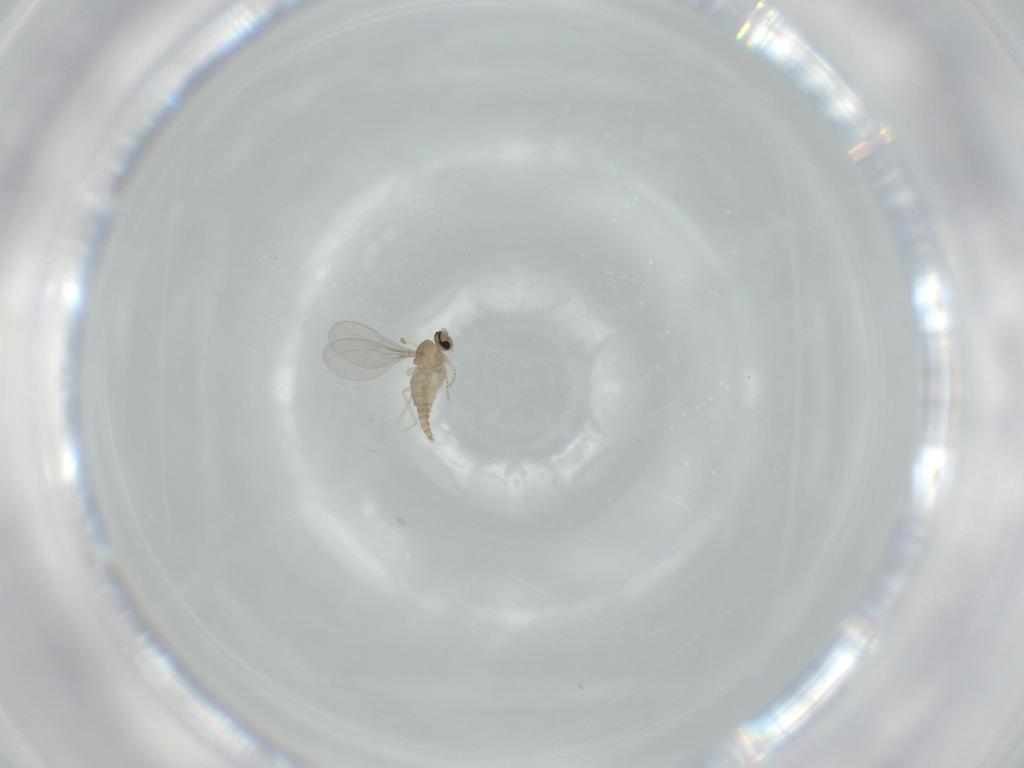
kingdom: Animalia
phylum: Arthropoda
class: Insecta
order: Diptera
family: Cecidomyiidae
